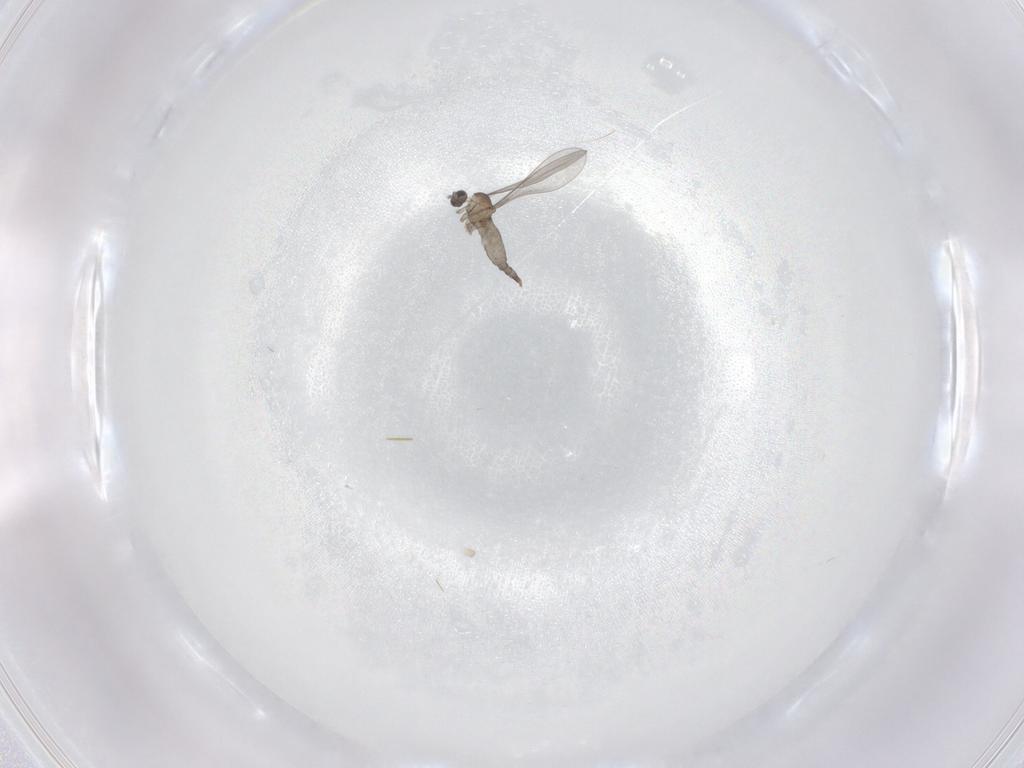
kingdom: Animalia
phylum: Arthropoda
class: Insecta
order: Diptera
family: Cecidomyiidae
